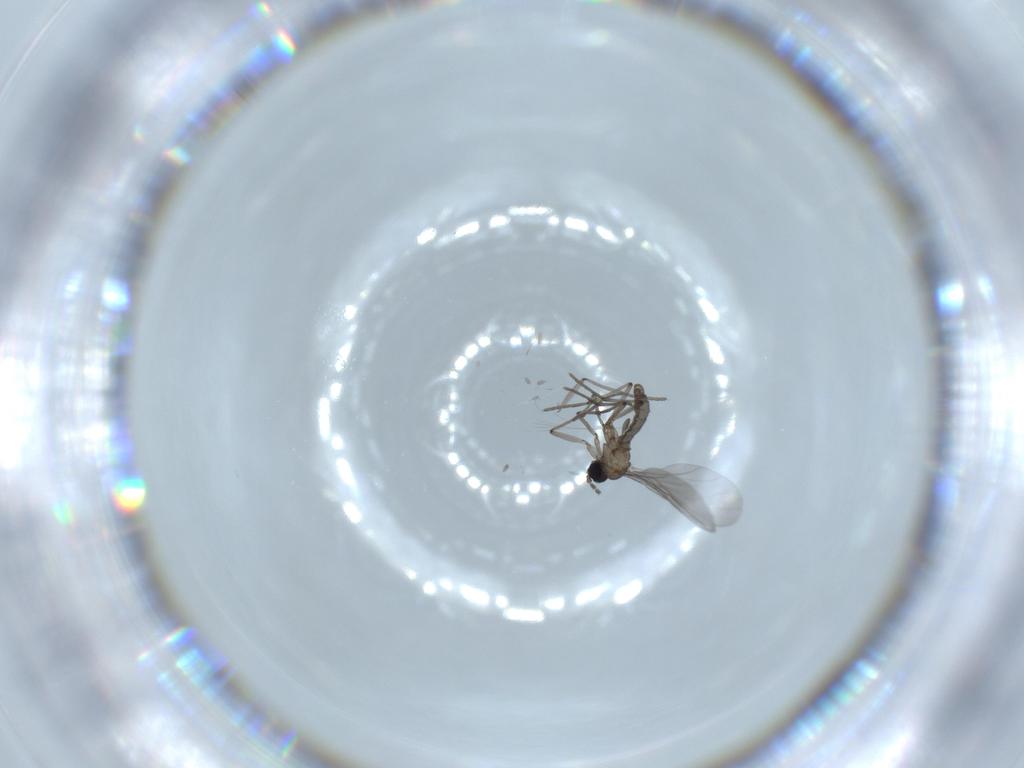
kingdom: Animalia
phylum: Arthropoda
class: Insecta
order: Diptera
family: Sciaridae
